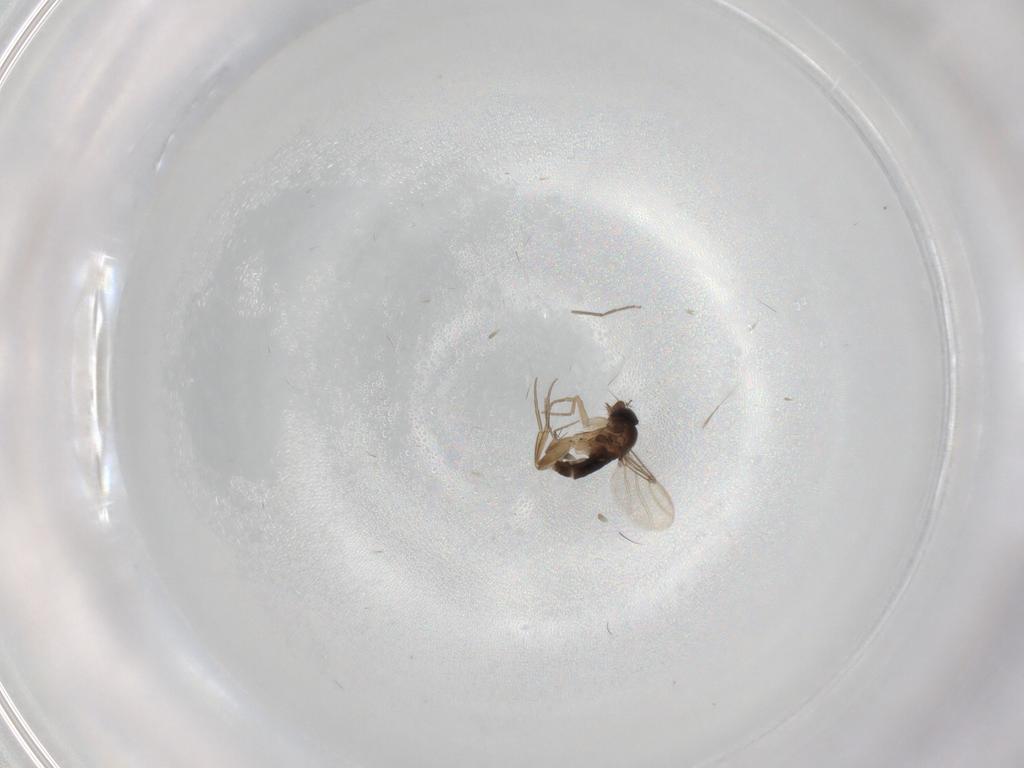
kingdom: Animalia
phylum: Arthropoda
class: Insecta
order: Diptera
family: Chironomidae
